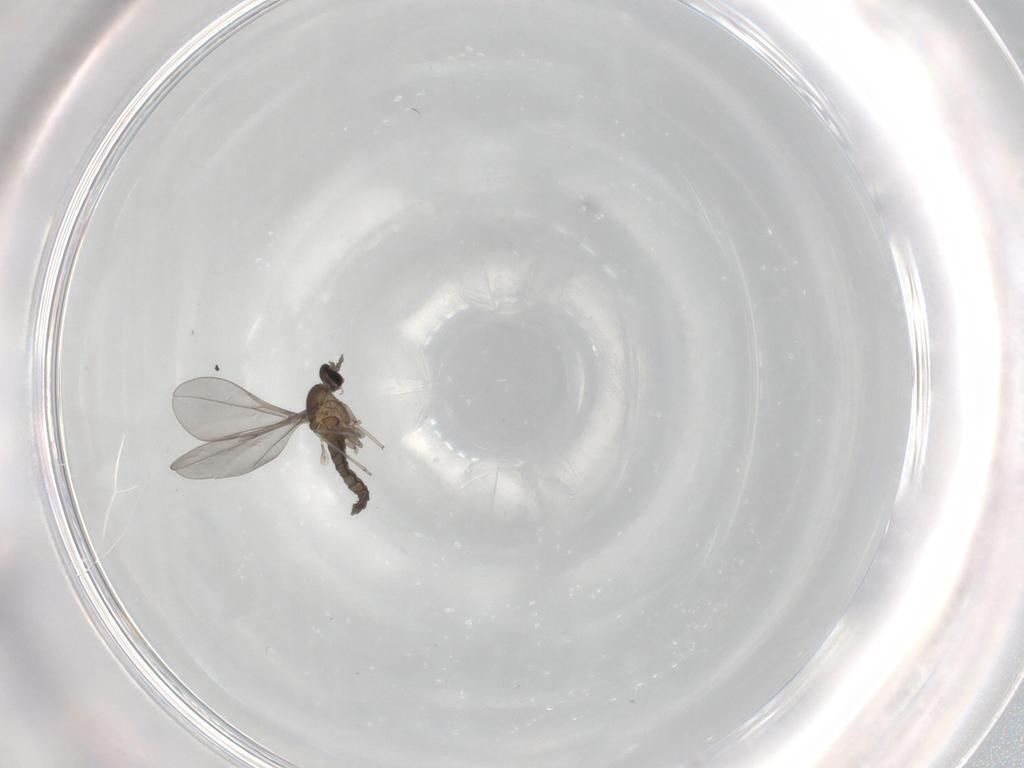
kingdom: Animalia
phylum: Arthropoda
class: Insecta
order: Diptera
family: Cecidomyiidae
